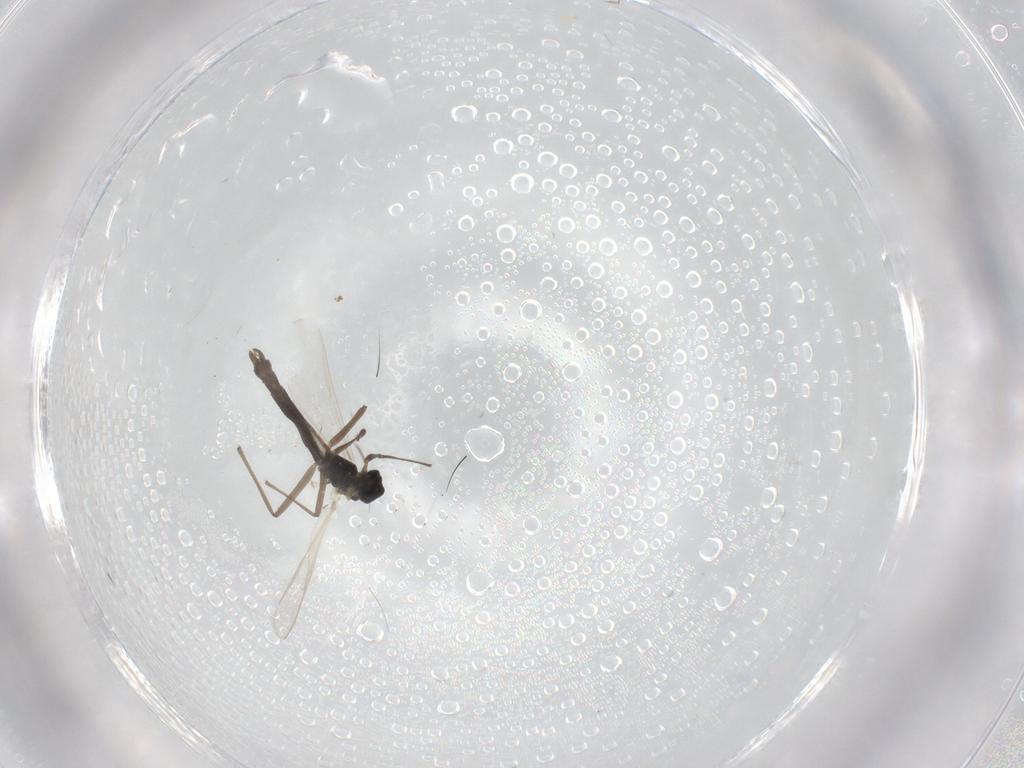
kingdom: Animalia
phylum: Arthropoda
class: Insecta
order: Diptera
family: Chironomidae
